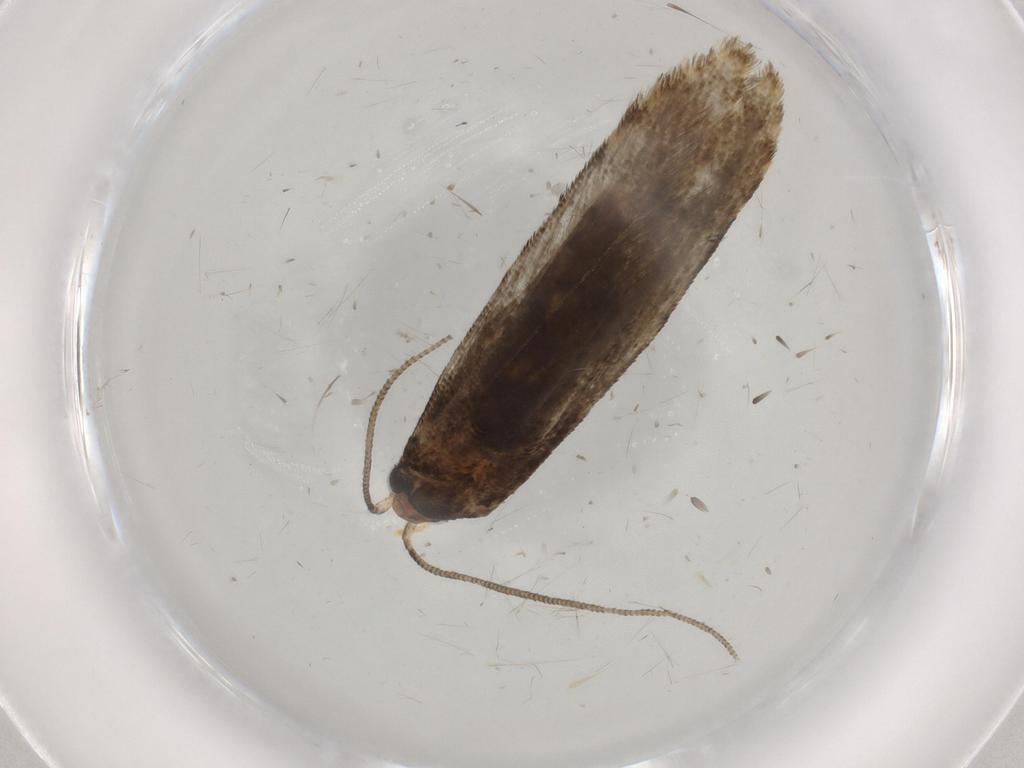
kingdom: Animalia
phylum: Arthropoda
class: Insecta
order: Lepidoptera
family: Tineidae
